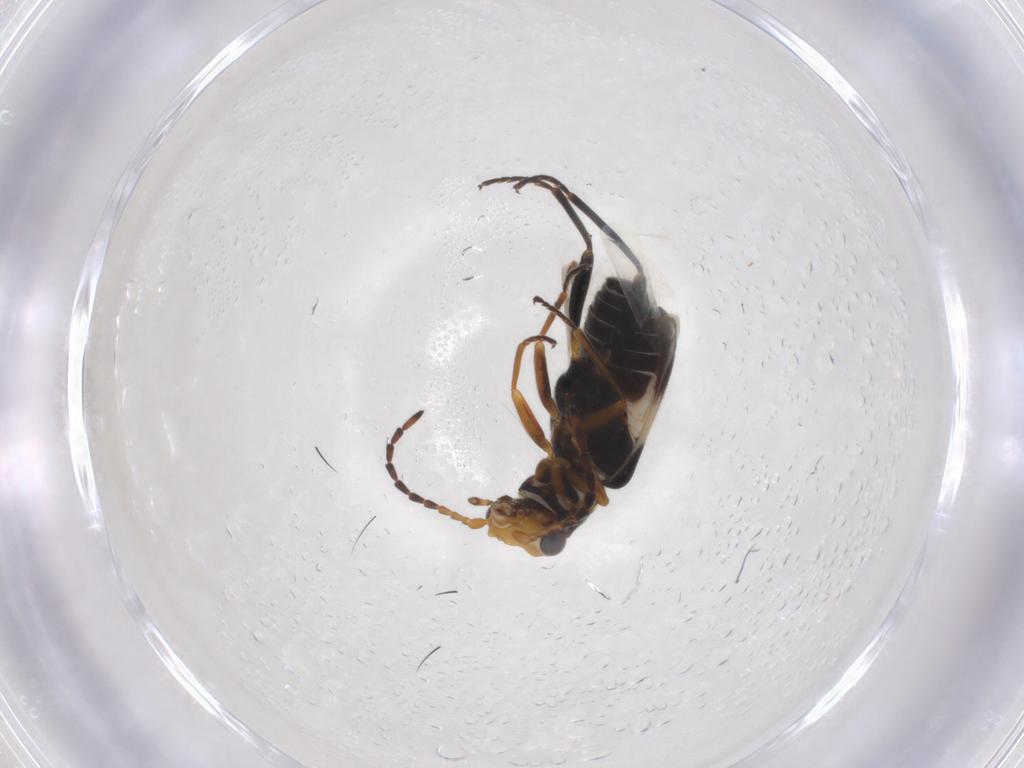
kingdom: Animalia
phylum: Arthropoda
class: Insecta
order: Coleoptera
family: Melyridae
